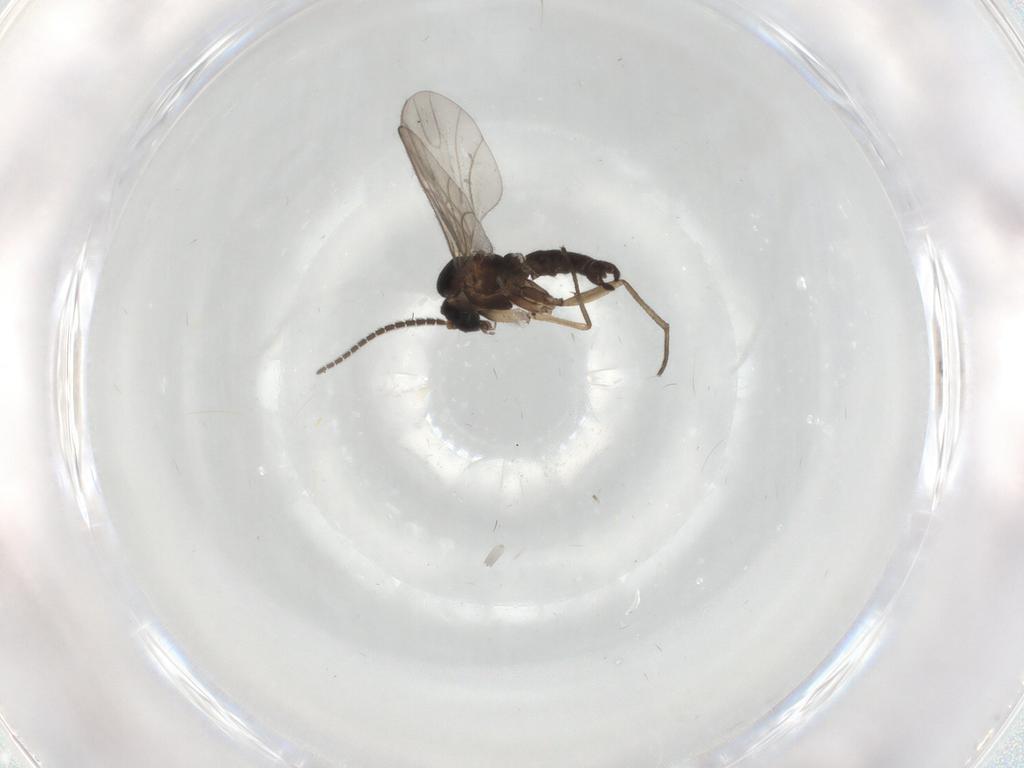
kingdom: Animalia
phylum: Arthropoda
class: Insecta
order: Diptera
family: Sciaridae
